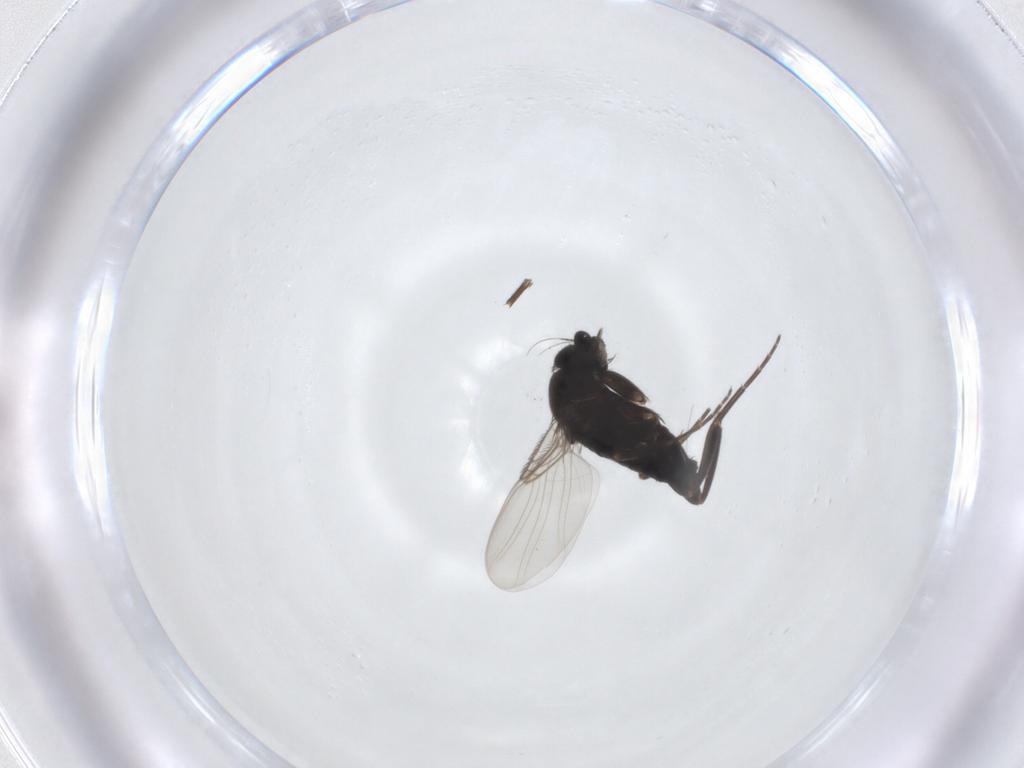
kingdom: Animalia
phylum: Arthropoda
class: Insecta
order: Diptera
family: Phoridae
